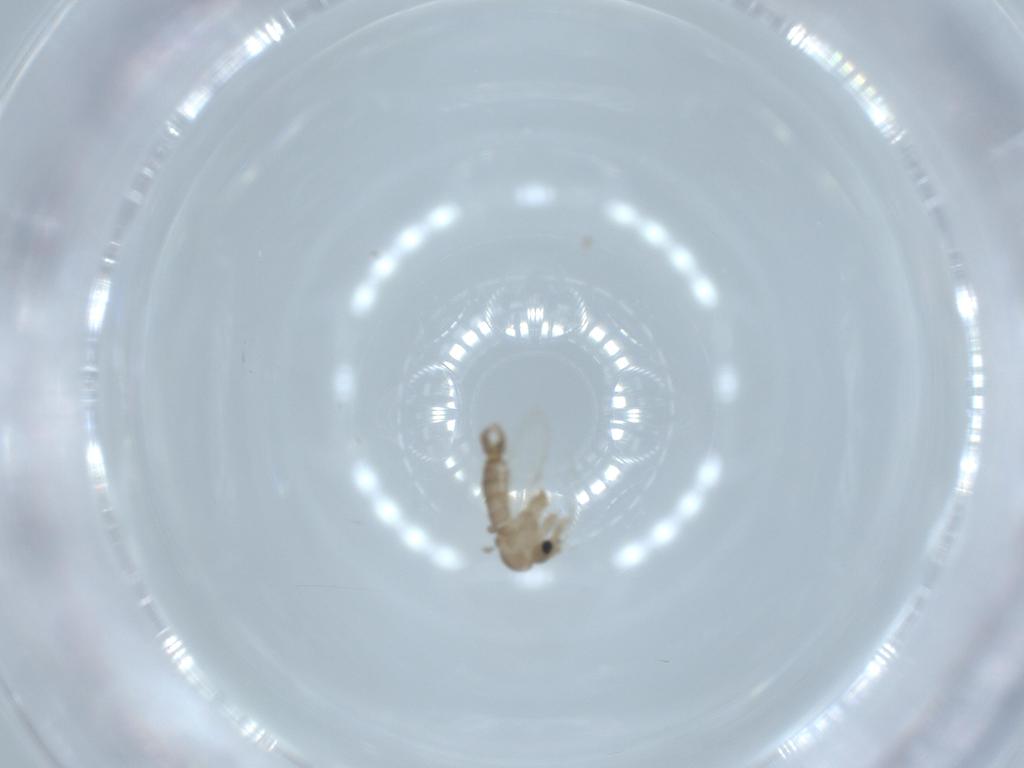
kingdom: Animalia
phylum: Arthropoda
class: Insecta
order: Diptera
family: Psychodidae
